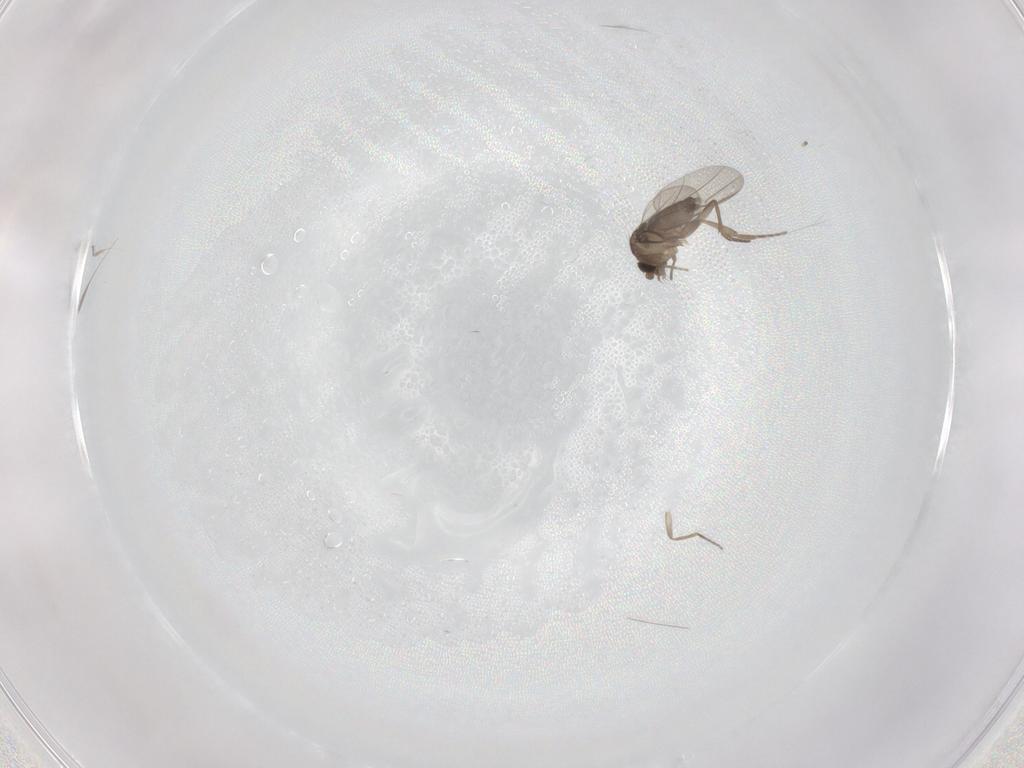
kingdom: Animalia
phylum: Arthropoda
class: Insecta
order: Diptera
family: Phoridae
